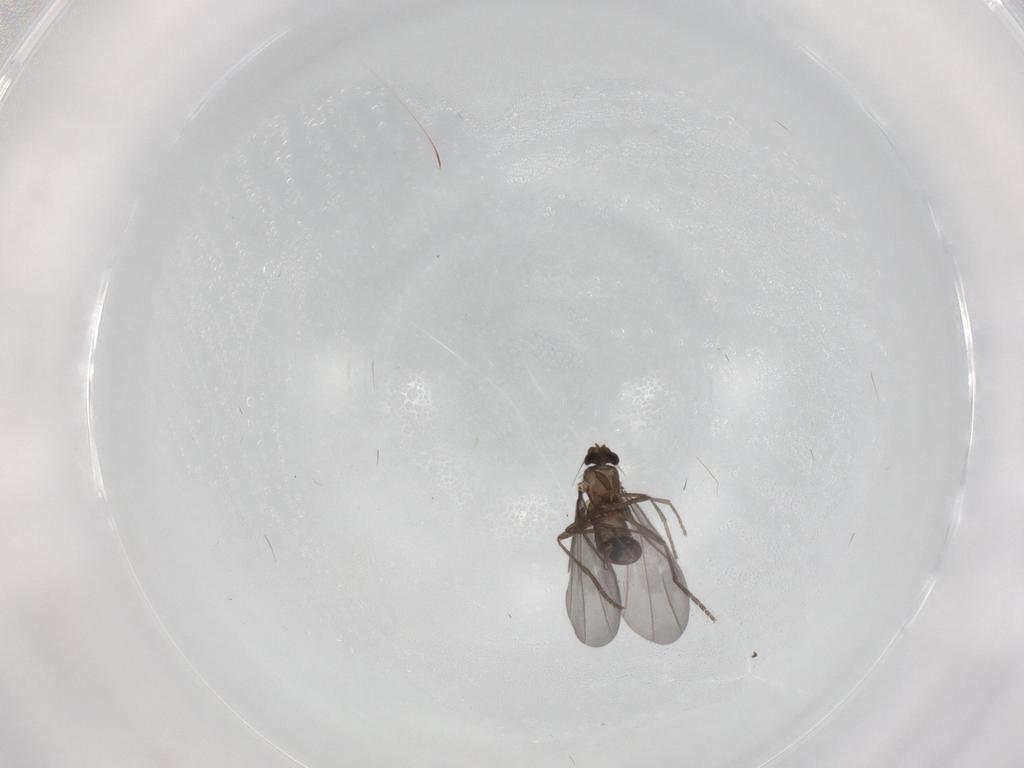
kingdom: Animalia
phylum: Arthropoda
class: Insecta
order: Diptera
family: Phoridae
